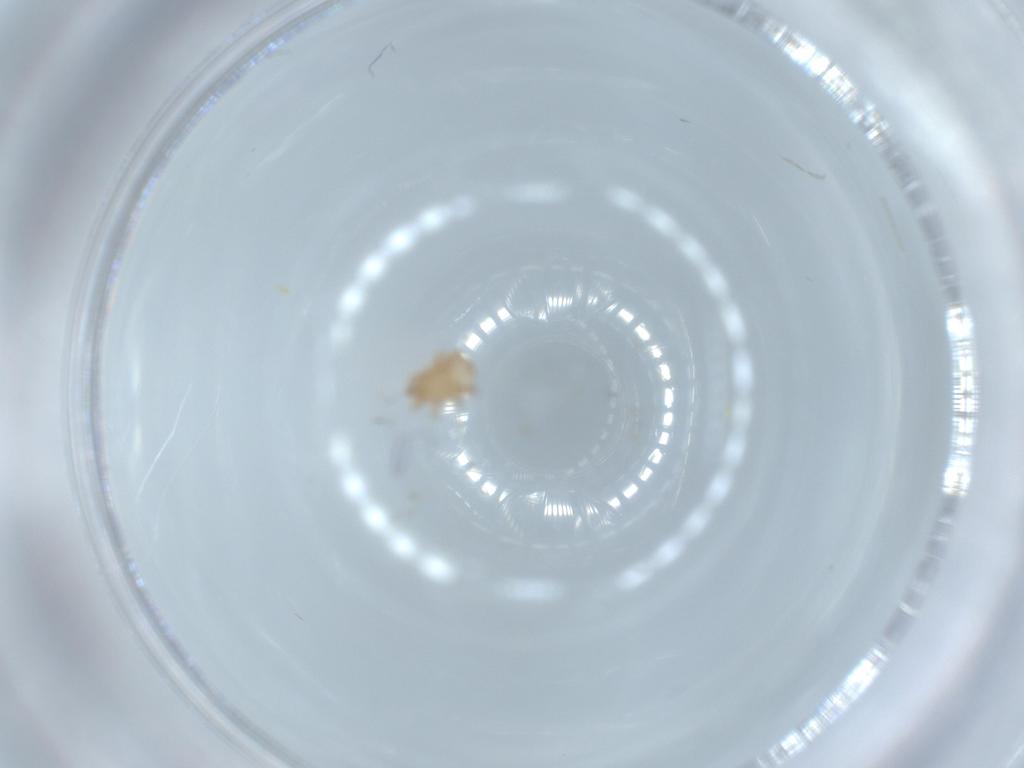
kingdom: Animalia
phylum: Arthropoda
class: Arachnida
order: Mesostigmata
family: Halolaelapidae
